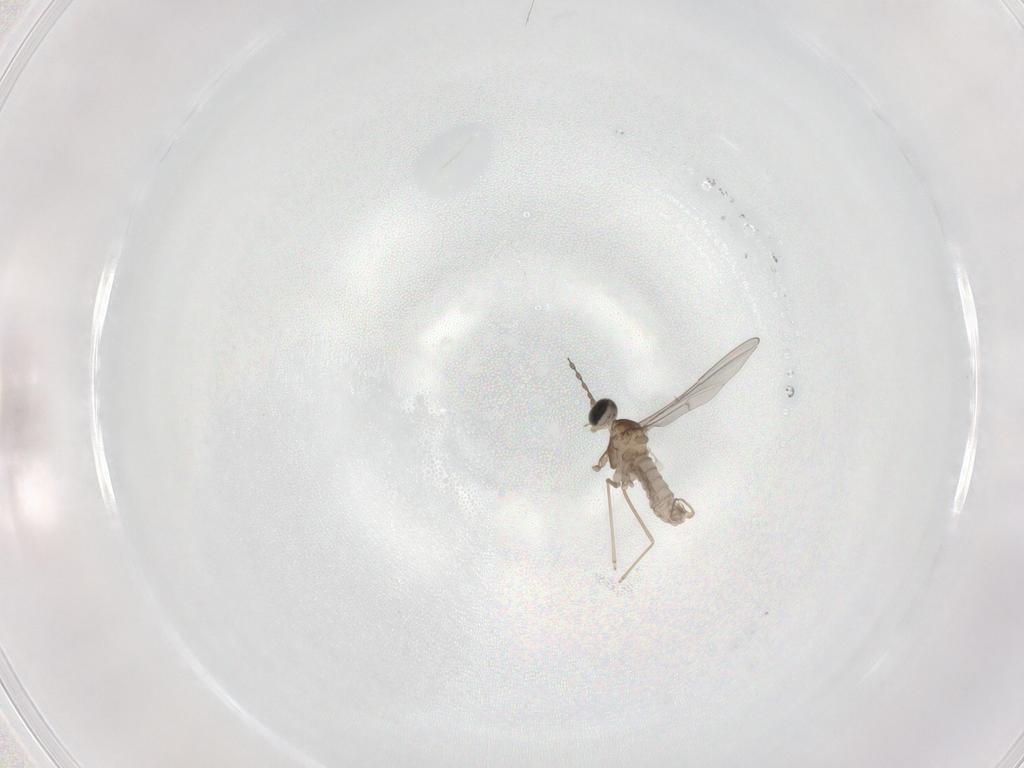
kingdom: Animalia
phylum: Arthropoda
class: Insecta
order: Diptera
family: Cecidomyiidae
